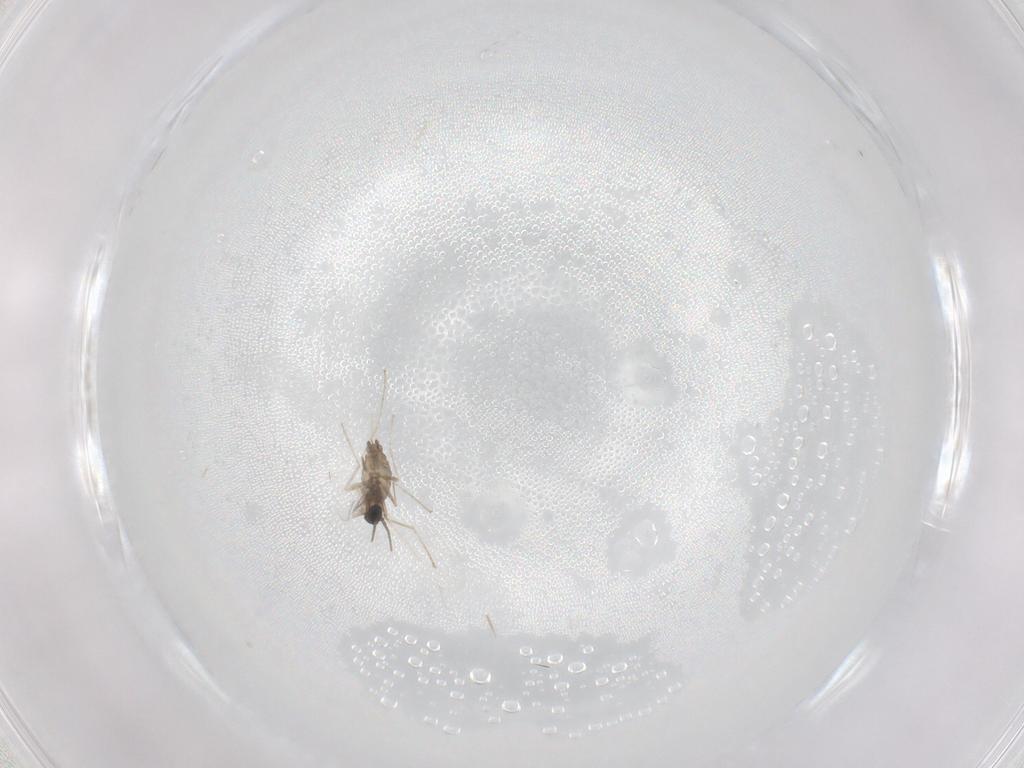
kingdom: Animalia
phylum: Arthropoda
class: Insecta
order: Diptera
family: Cecidomyiidae
